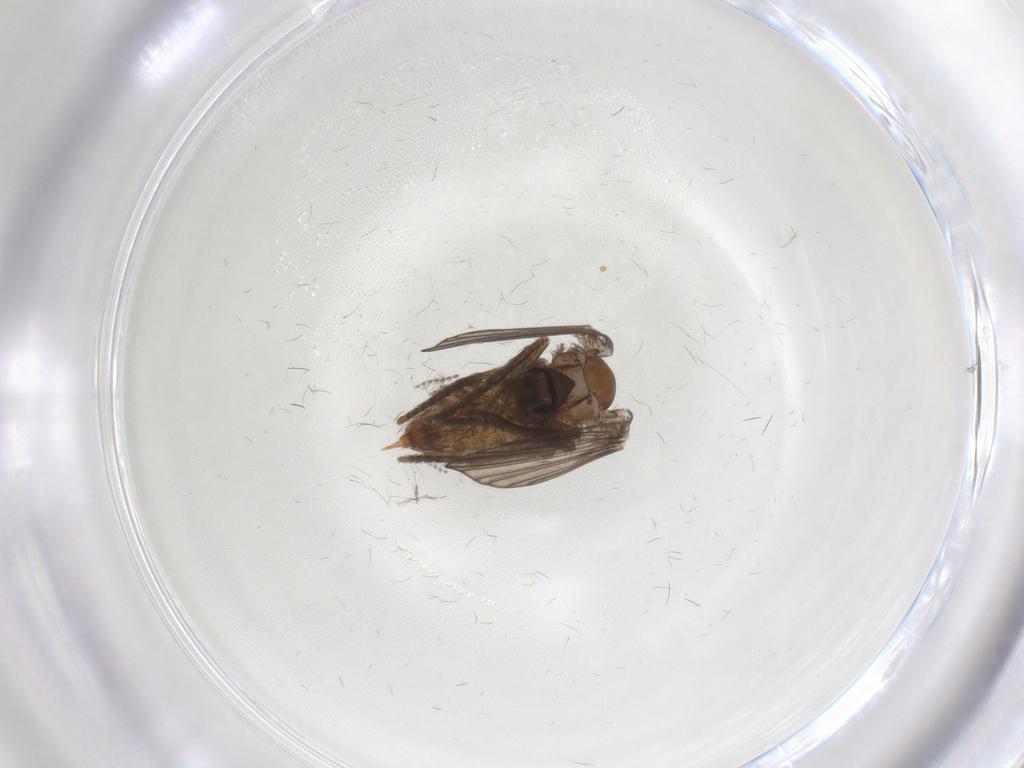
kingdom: Animalia
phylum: Arthropoda
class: Insecta
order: Diptera
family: Psychodidae
